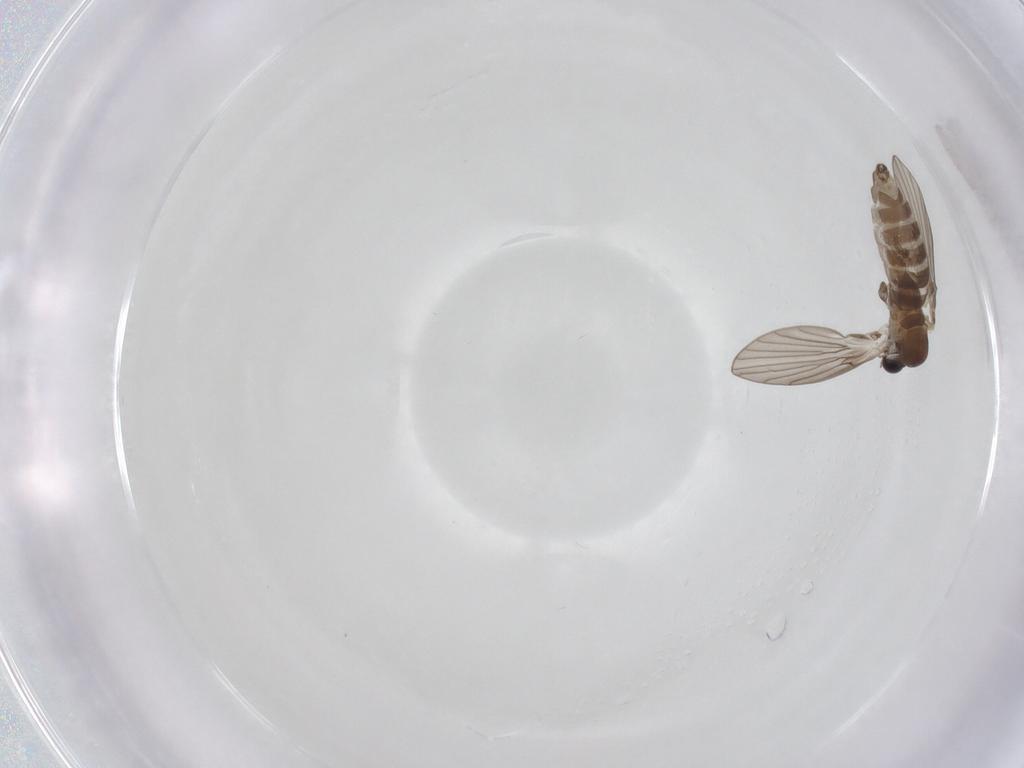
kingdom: Animalia
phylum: Arthropoda
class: Insecta
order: Diptera
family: Psychodidae
